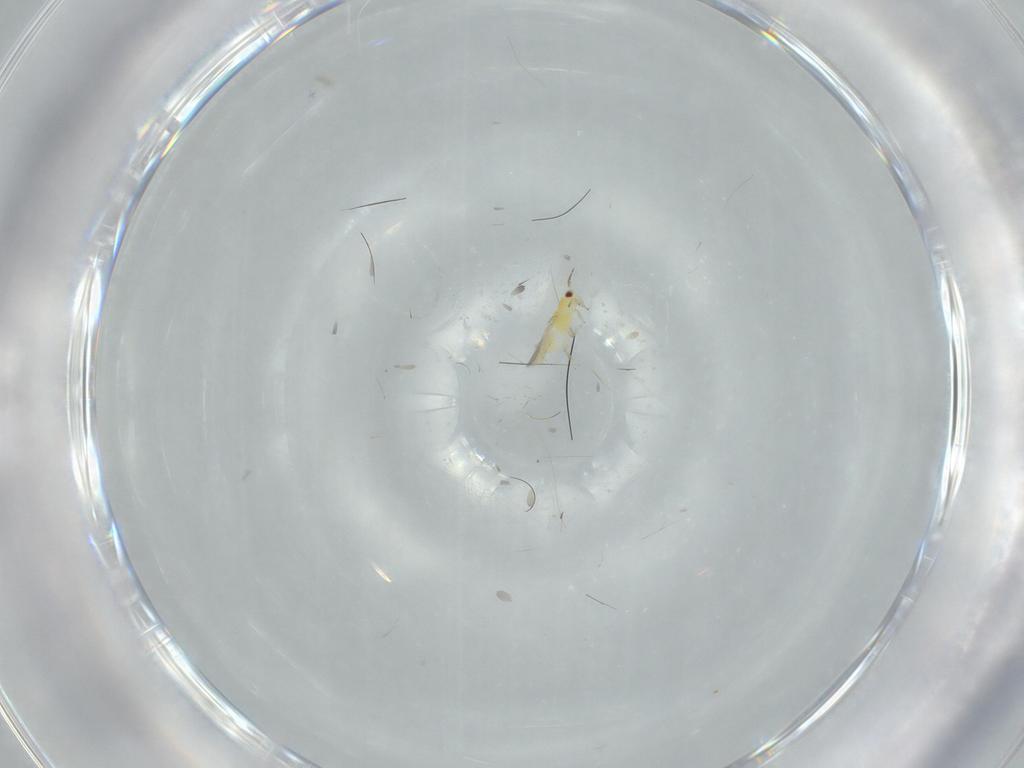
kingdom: Animalia
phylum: Arthropoda
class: Insecta
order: Thysanoptera
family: Thripidae
